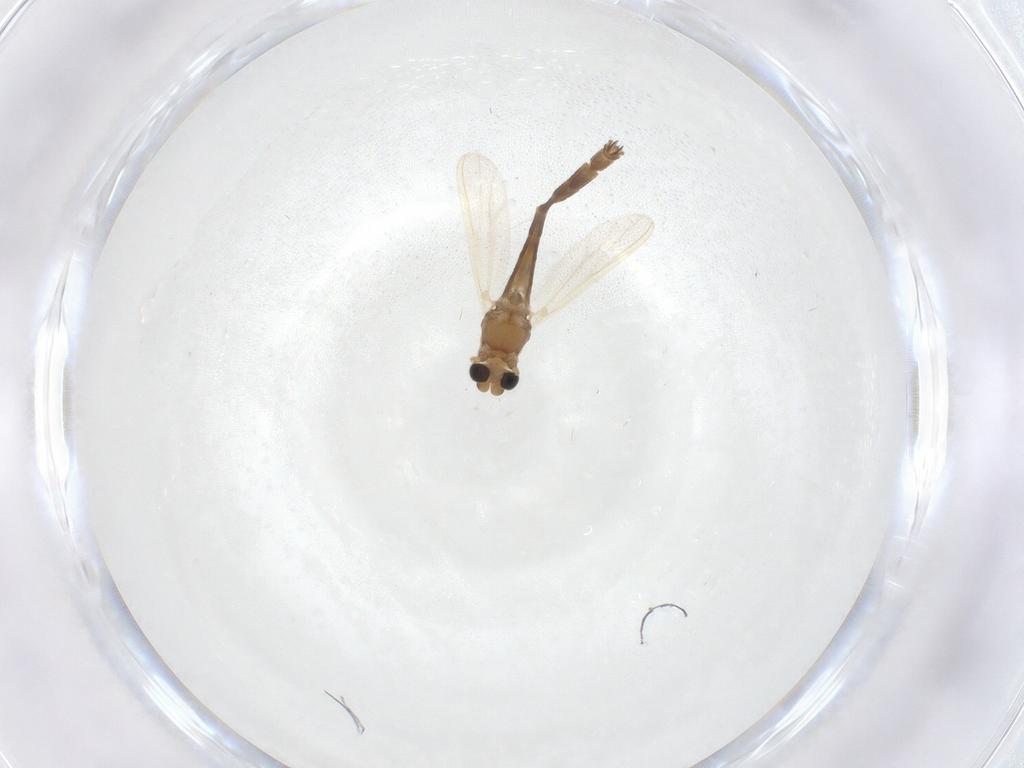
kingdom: Animalia
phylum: Arthropoda
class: Insecta
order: Diptera
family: Chironomidae
